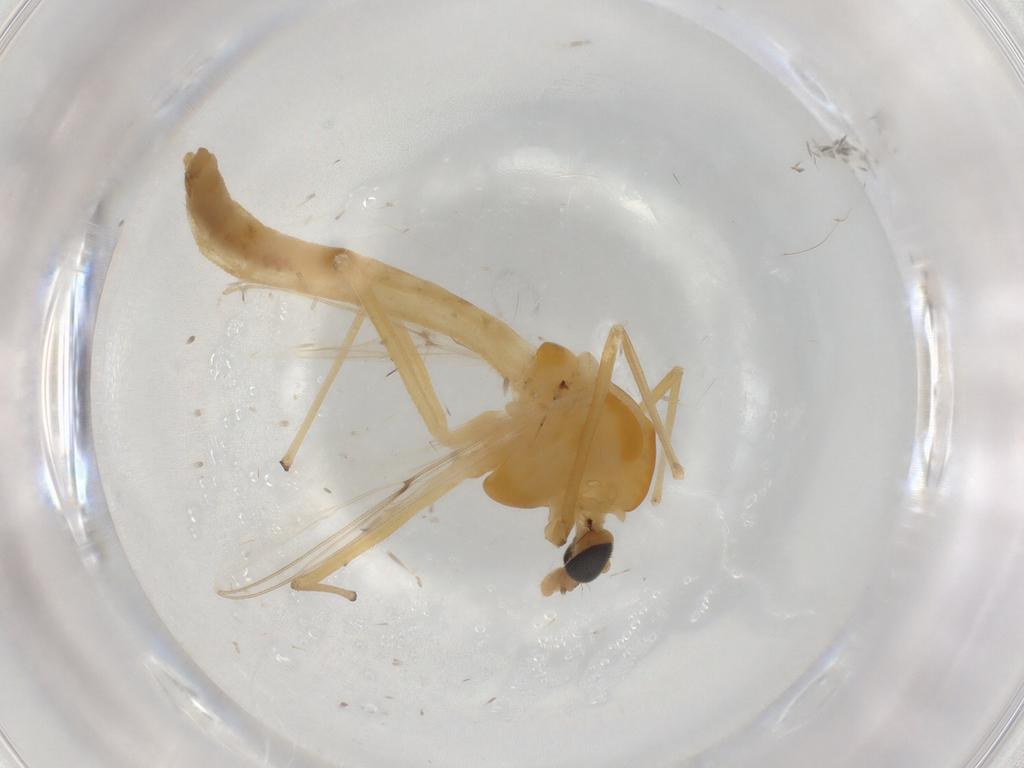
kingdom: Animalia
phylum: Arthropoda
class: Insecta
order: Diptera
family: Chironomidae
